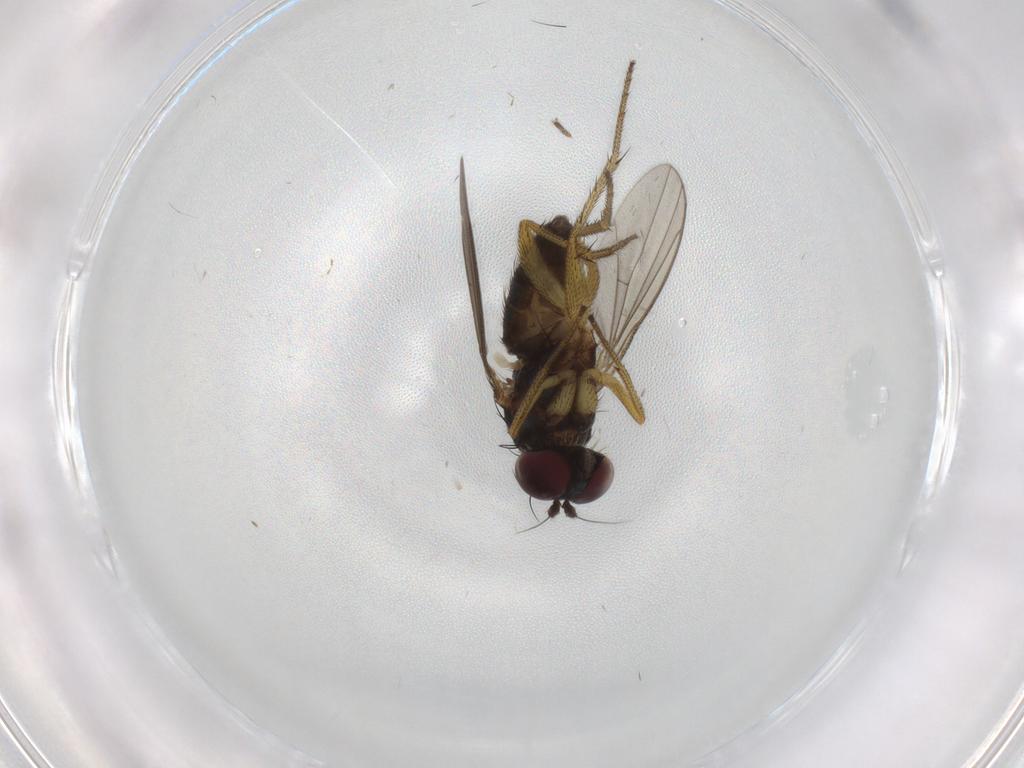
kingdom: Animalia
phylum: Arthropoda
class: Insecta
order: Diptera
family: Dolichopodidae
